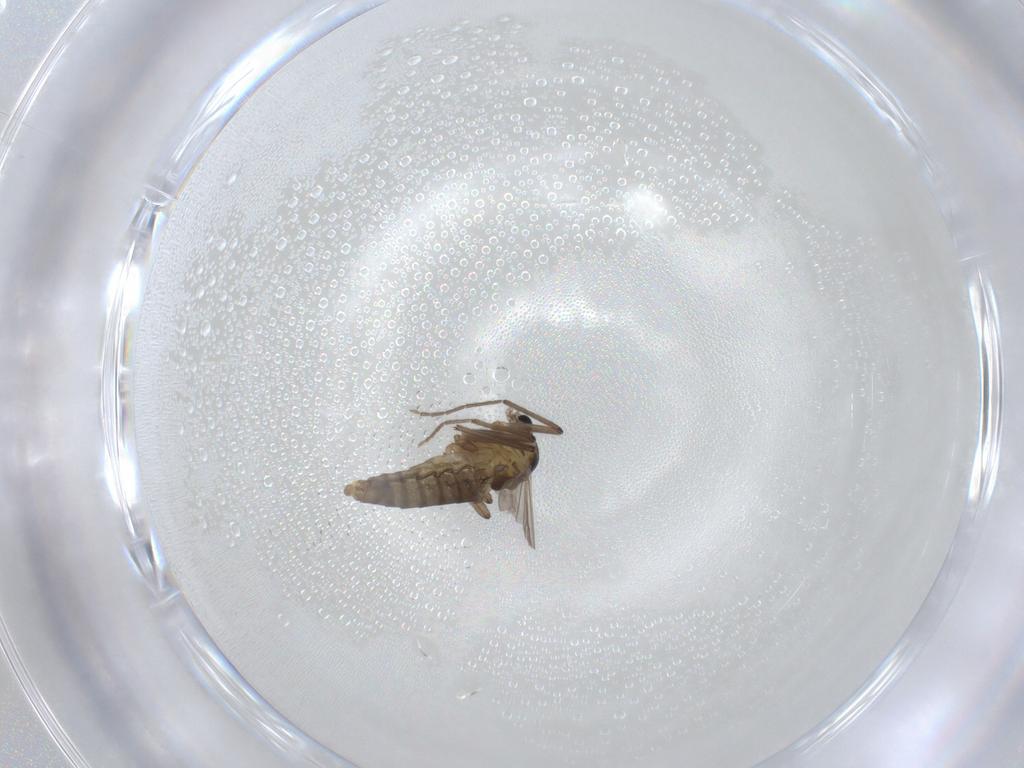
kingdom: Animalia
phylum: Arthropoda
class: Insecta
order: Diptera
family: Chironomidae
